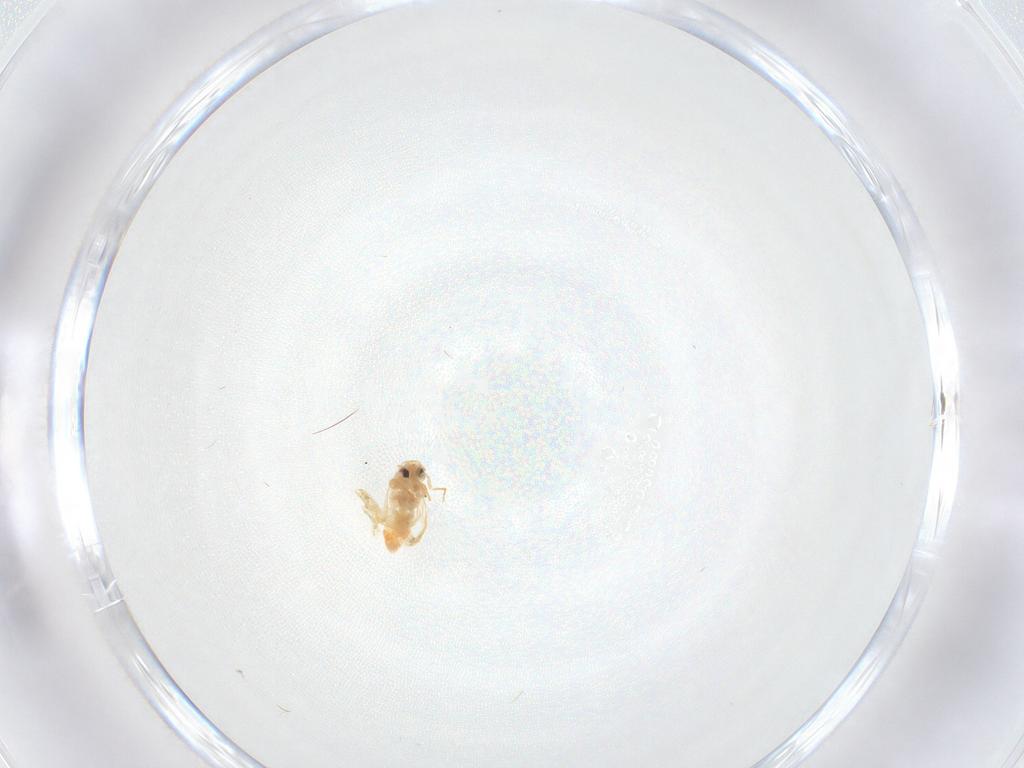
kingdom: Animalia
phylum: Arthropoda
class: Insecta
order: Hemiptera
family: Aleyrodidae
